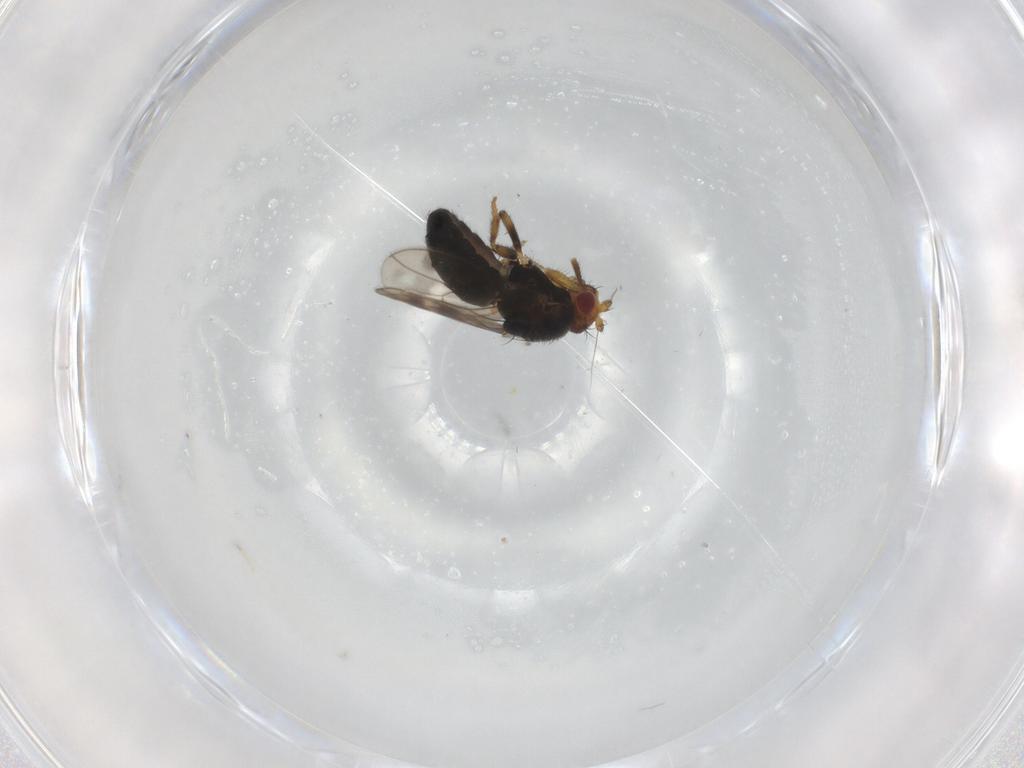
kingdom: Animalia
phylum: Arthropoda
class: Insecta
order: Diptera
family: Sphaeroceridae
